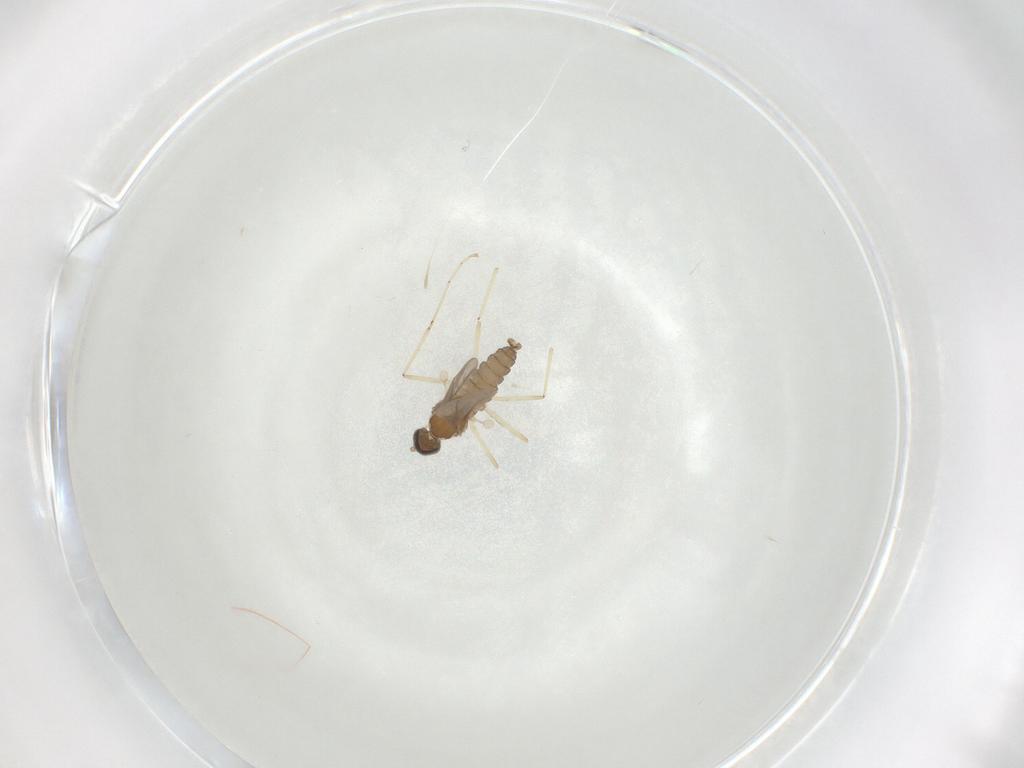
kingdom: Animalia
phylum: Arthropoda
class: Insecta
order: Diptera
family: Cecidomyiidae
